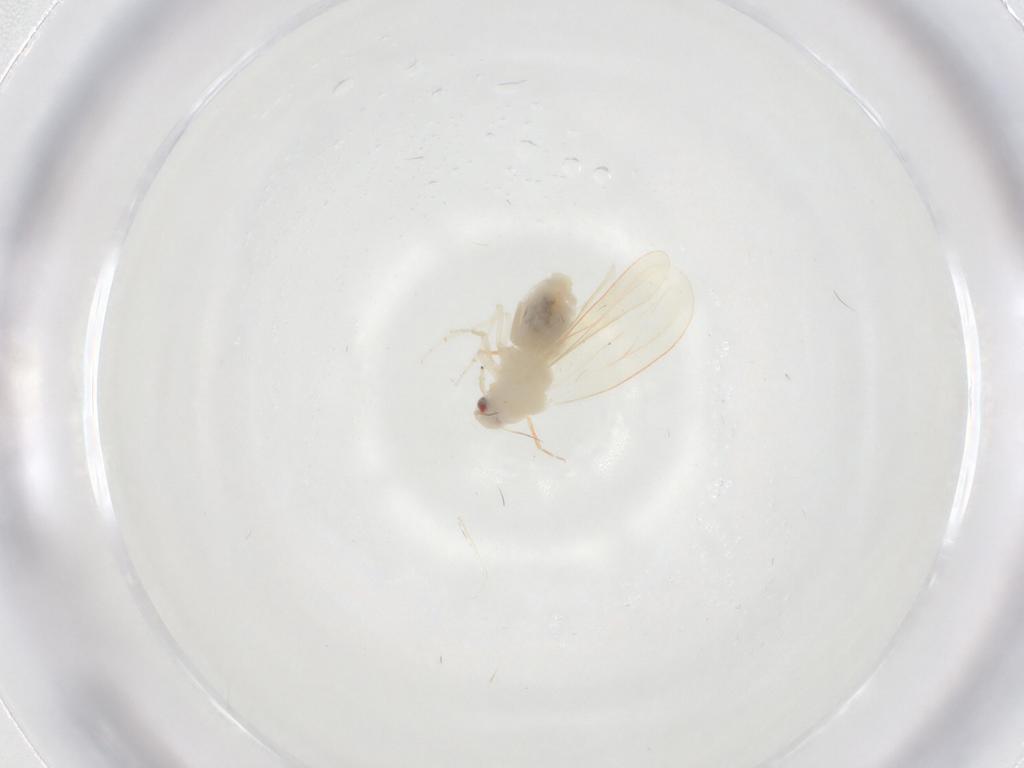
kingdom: Animalia
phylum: Arthropoda
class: Insecta
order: Hemiptera
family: Aleyrodidae
